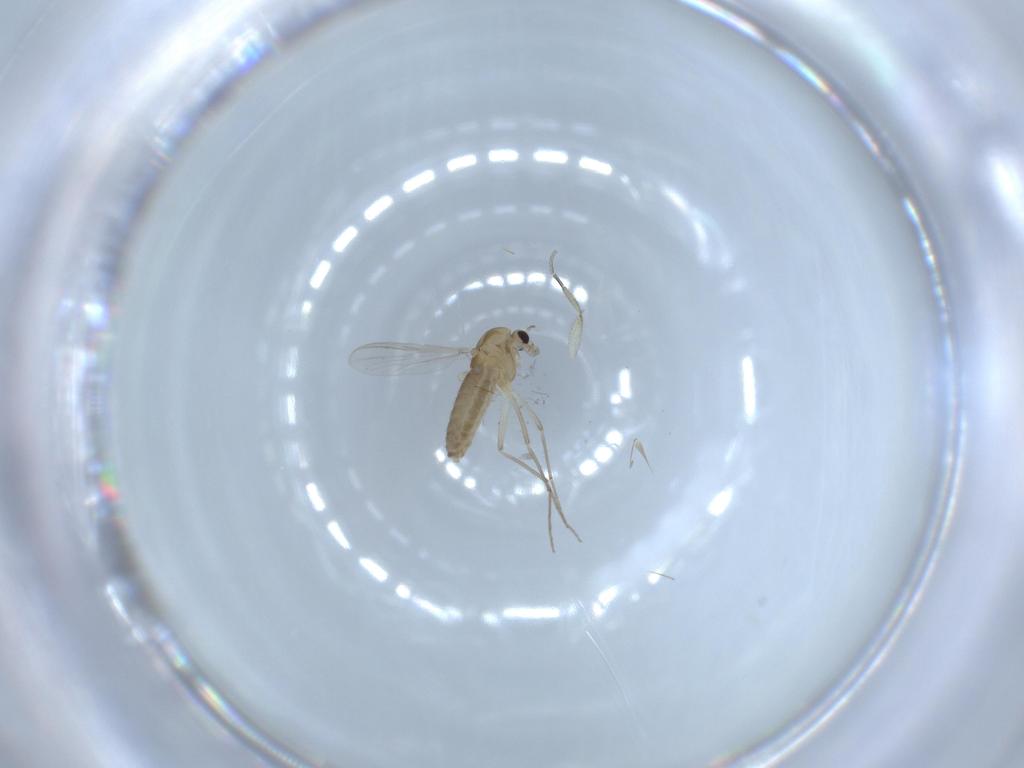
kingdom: Animalia
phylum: Arthropoda
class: Insecta
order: Diptera
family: Chironomidae
